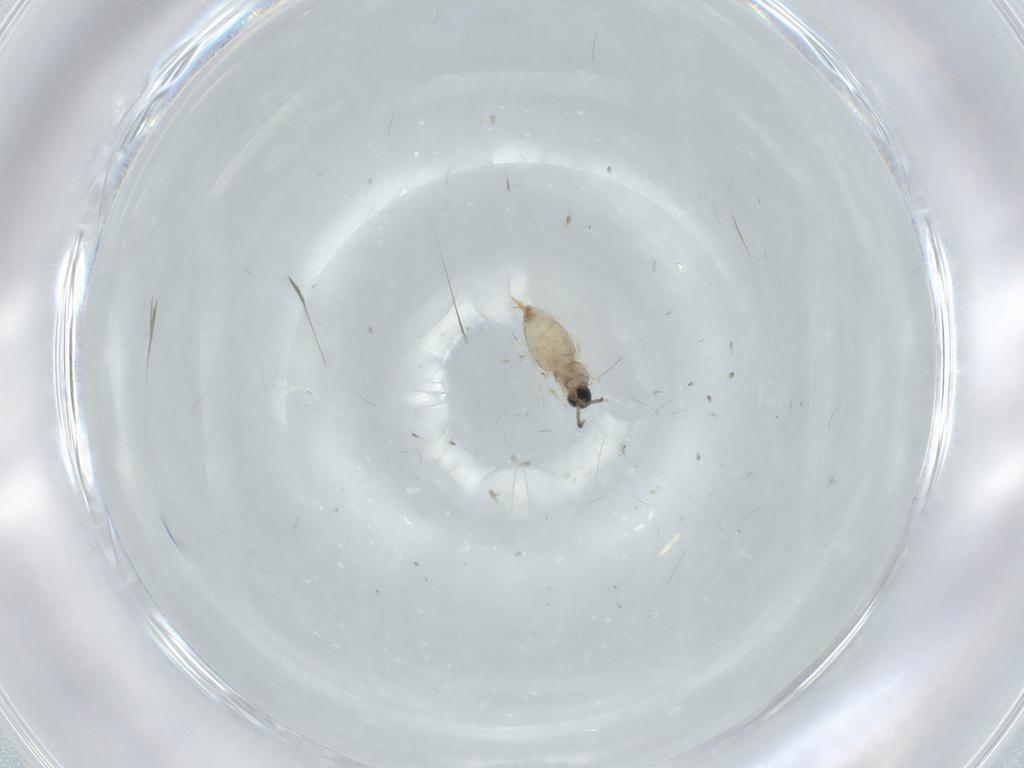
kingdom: Animalia
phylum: Arthropoda
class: Insecta
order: Diptera
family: Cecidomyiidae
